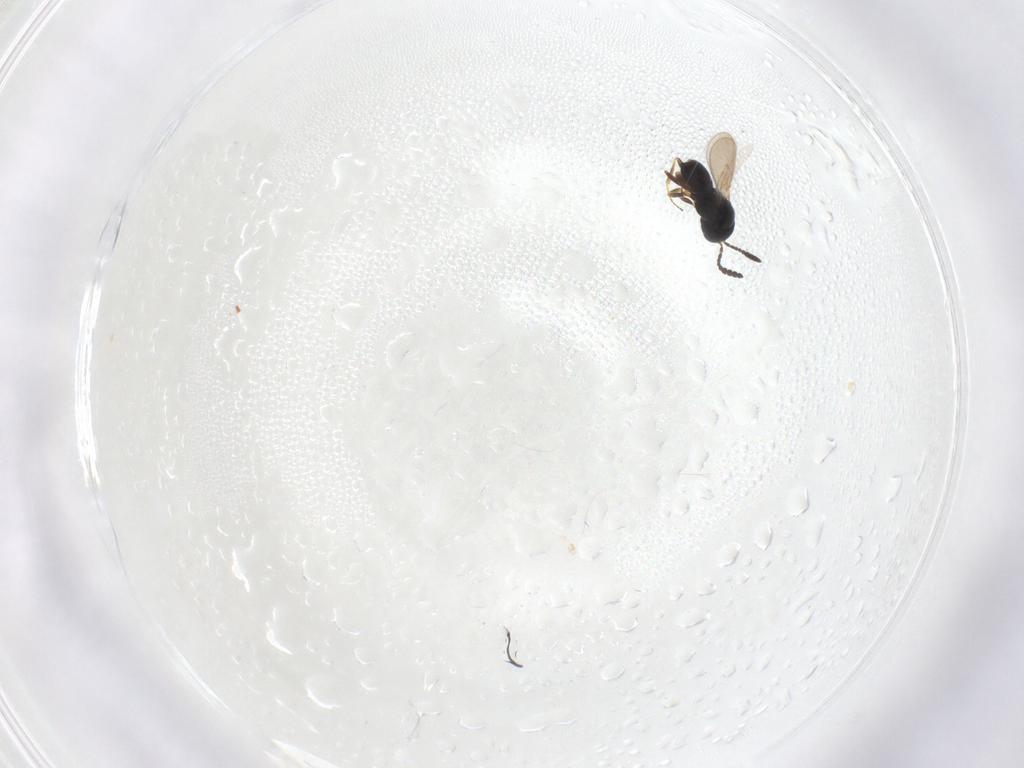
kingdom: Animalia
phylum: Arthropoda
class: Insecta
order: Hymenoptera
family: Scelionidae
